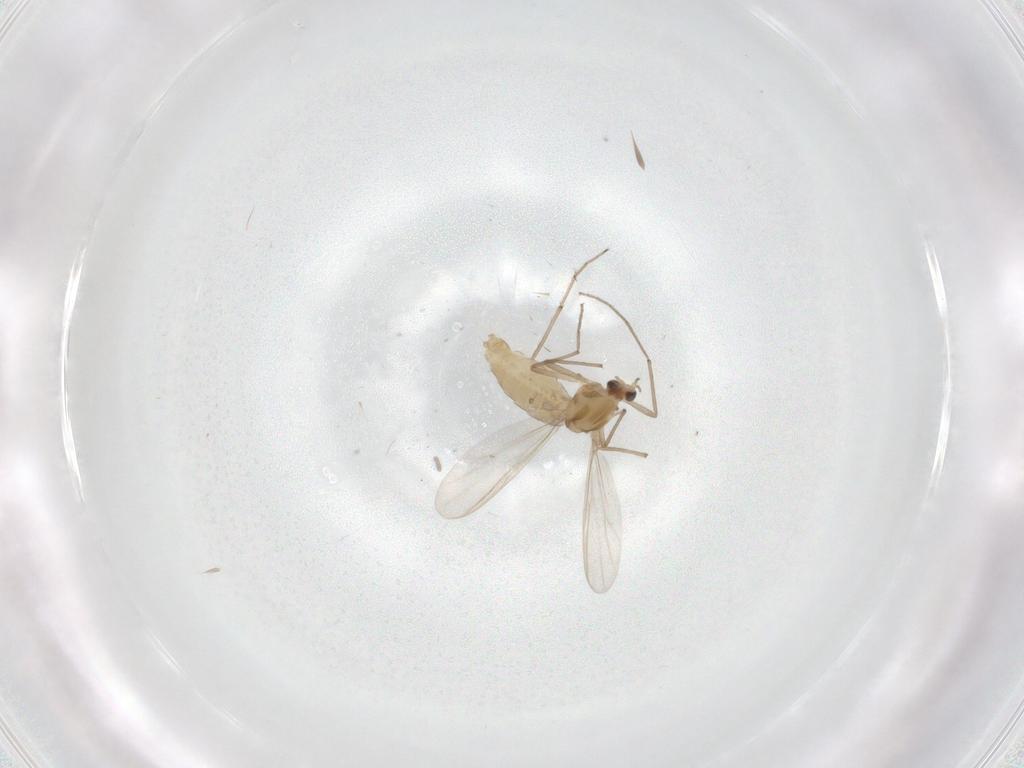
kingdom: Animalia
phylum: Arthropoda
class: Insecta
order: Diptera
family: Chironomidae
